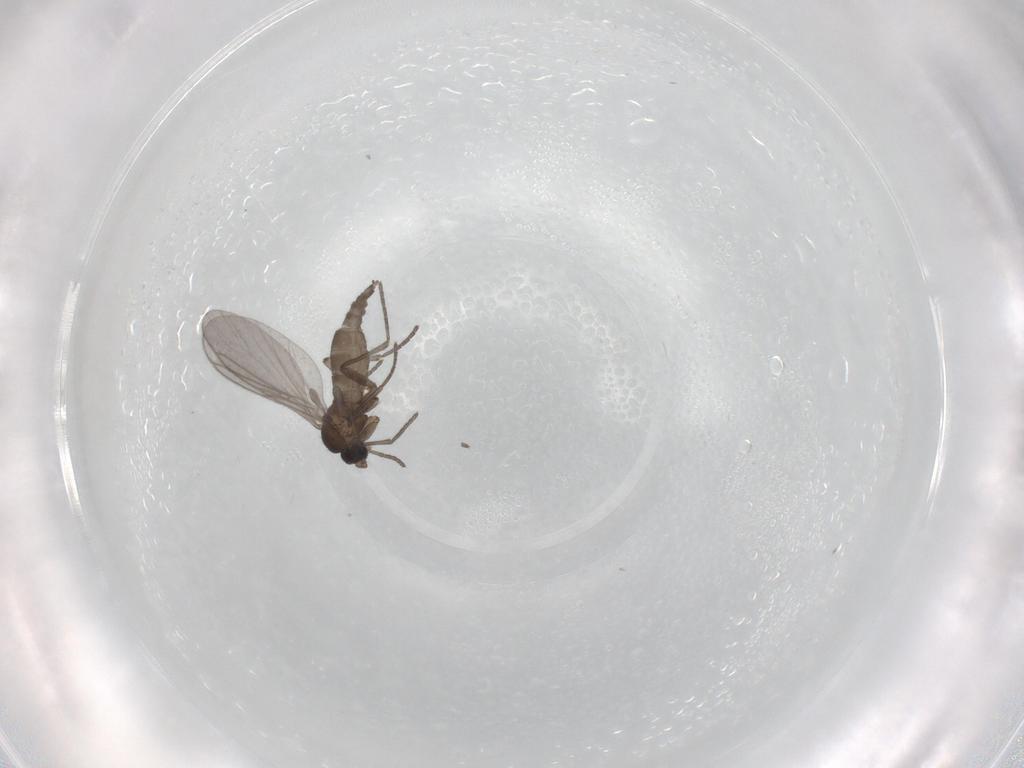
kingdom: Animalia
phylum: Arthropoda
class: Insecta
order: Diptera
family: Sciaridae
